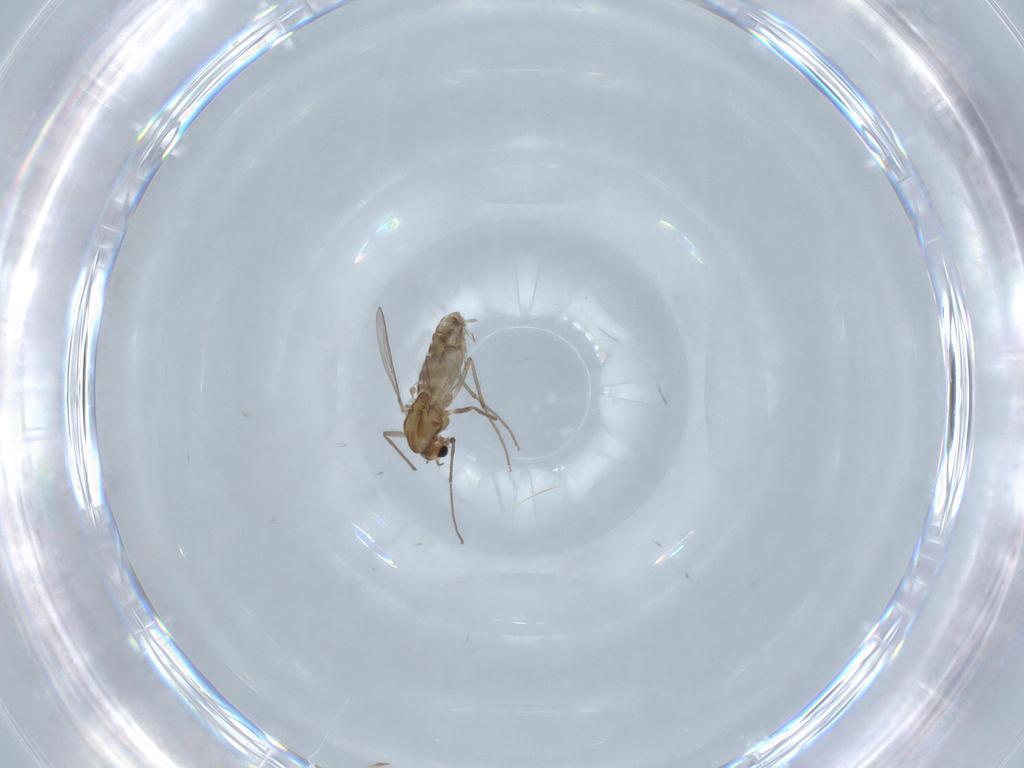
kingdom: Animalia
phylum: Arthropoda
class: Insecta
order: Diptera
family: Chironomidae
